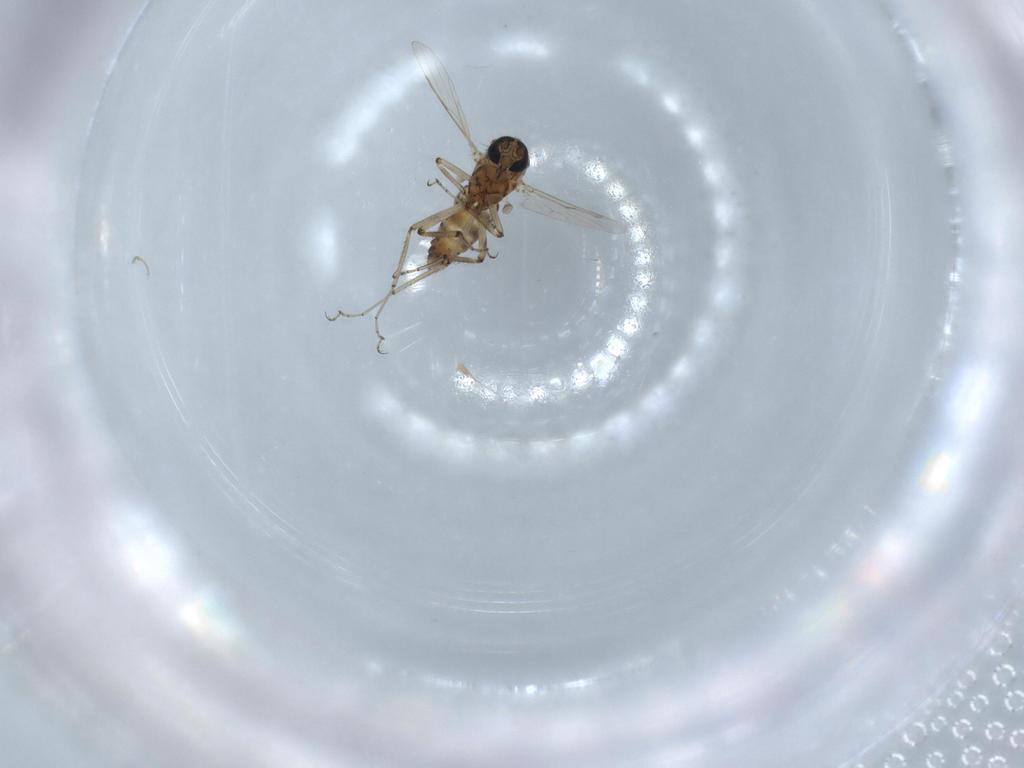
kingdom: Animalia
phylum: Arthropoda
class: Insecta
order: Diptera
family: Ceratopogonidae
